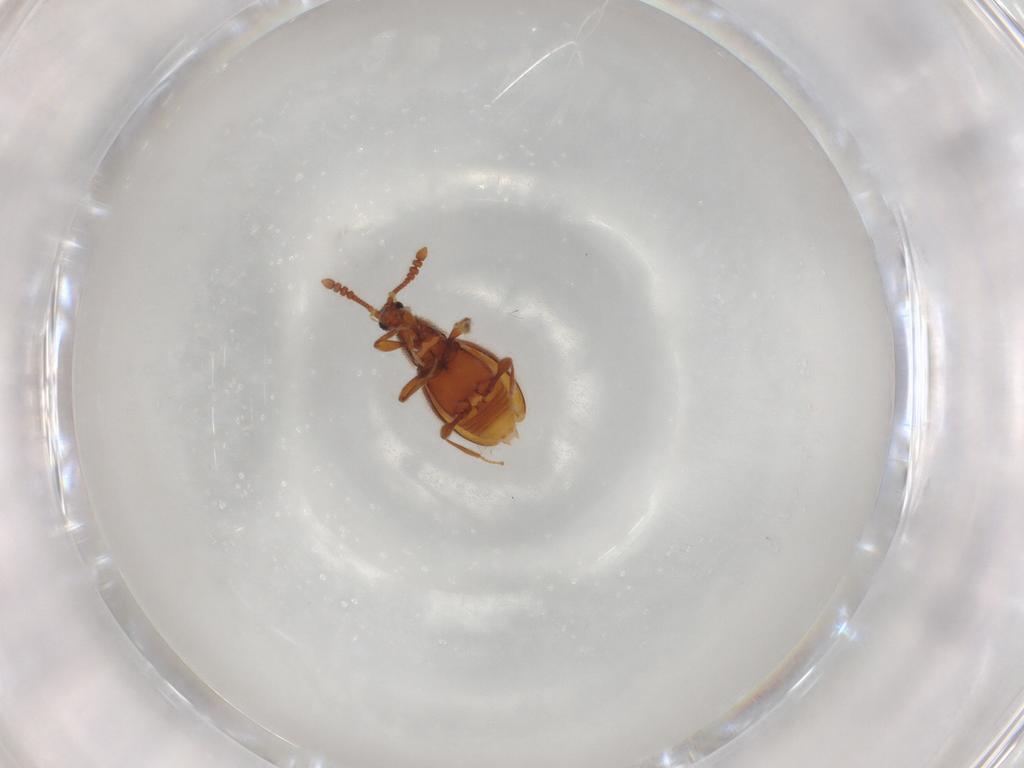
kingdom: Animalia
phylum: Arthropoda
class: Insecta
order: Coleoptera
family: Staphylinidae
